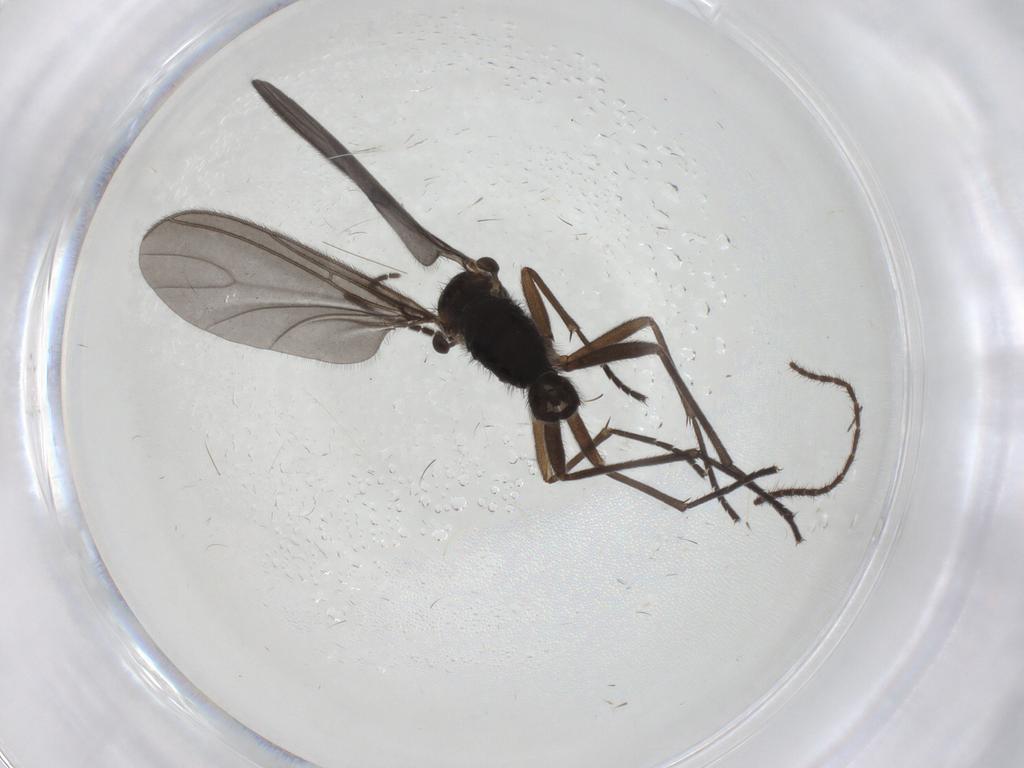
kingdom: Animalia
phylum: Arthropoda
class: Insecta
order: Diptera
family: Sciaridae
